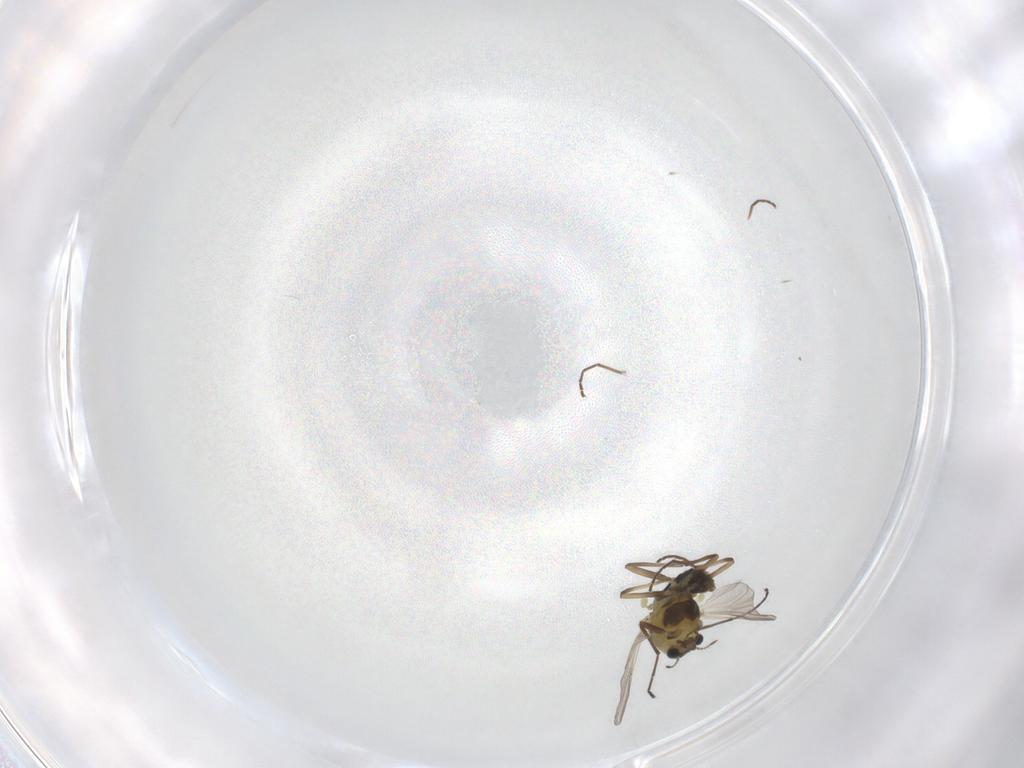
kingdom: Animalia
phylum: Arthropoda
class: Insecta
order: Diptera
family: Chironomidae
